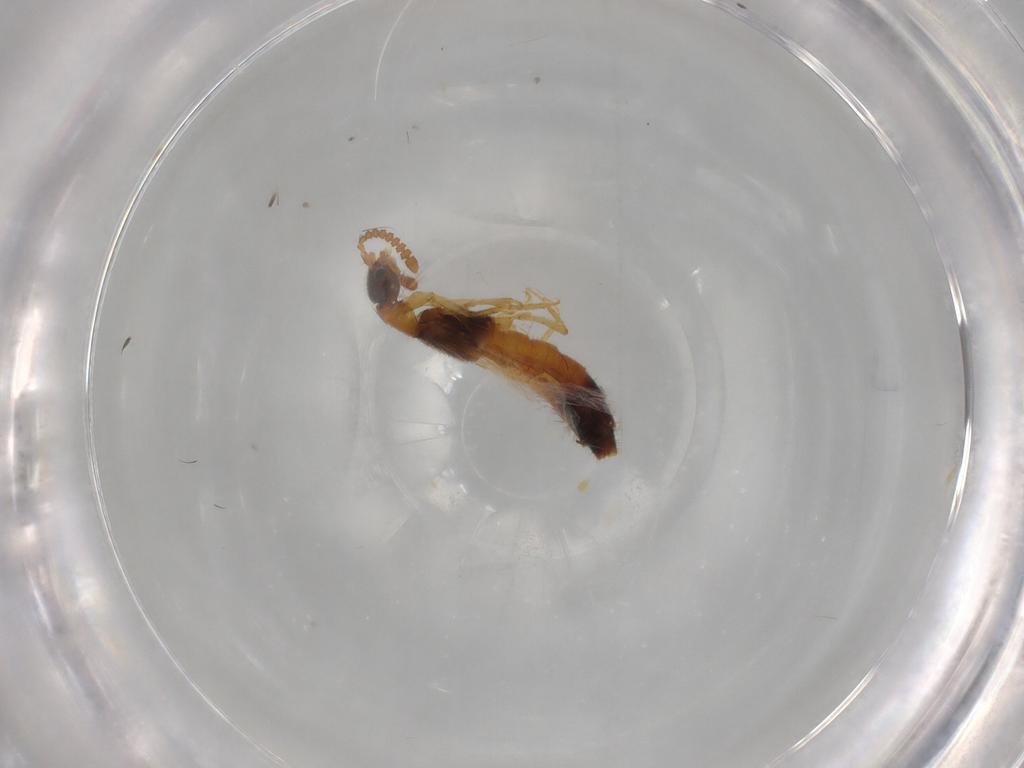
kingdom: Animalia
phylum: Arthropoda
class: Insecta
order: Coleoptera
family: Staphylinidae
